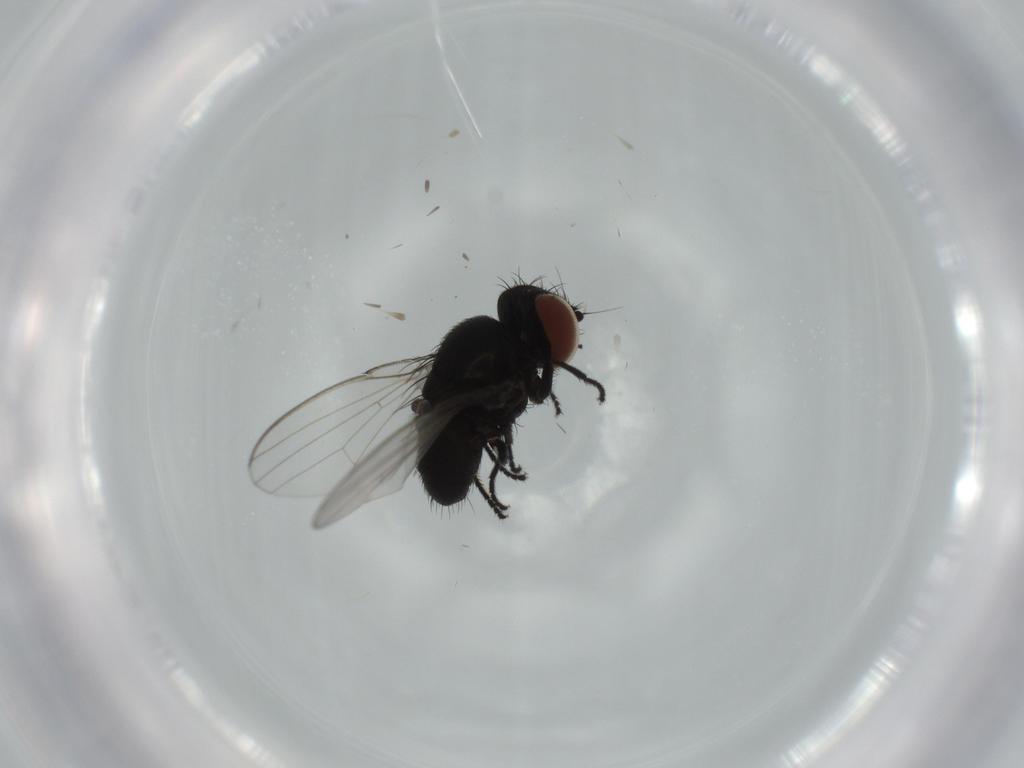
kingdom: Animalia
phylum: Arthropoda
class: Insecta
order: Diptera
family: Milichiidae
